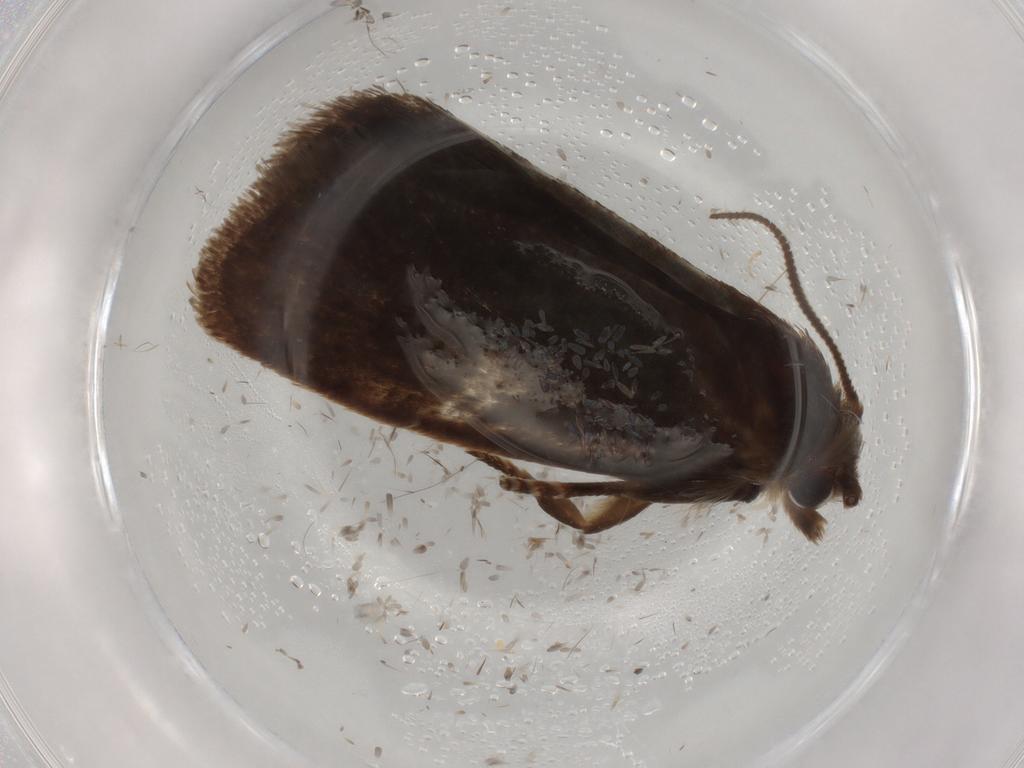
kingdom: Animalia
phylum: Arthropoda
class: Insecta
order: Lepidoptera
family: Tineidae
